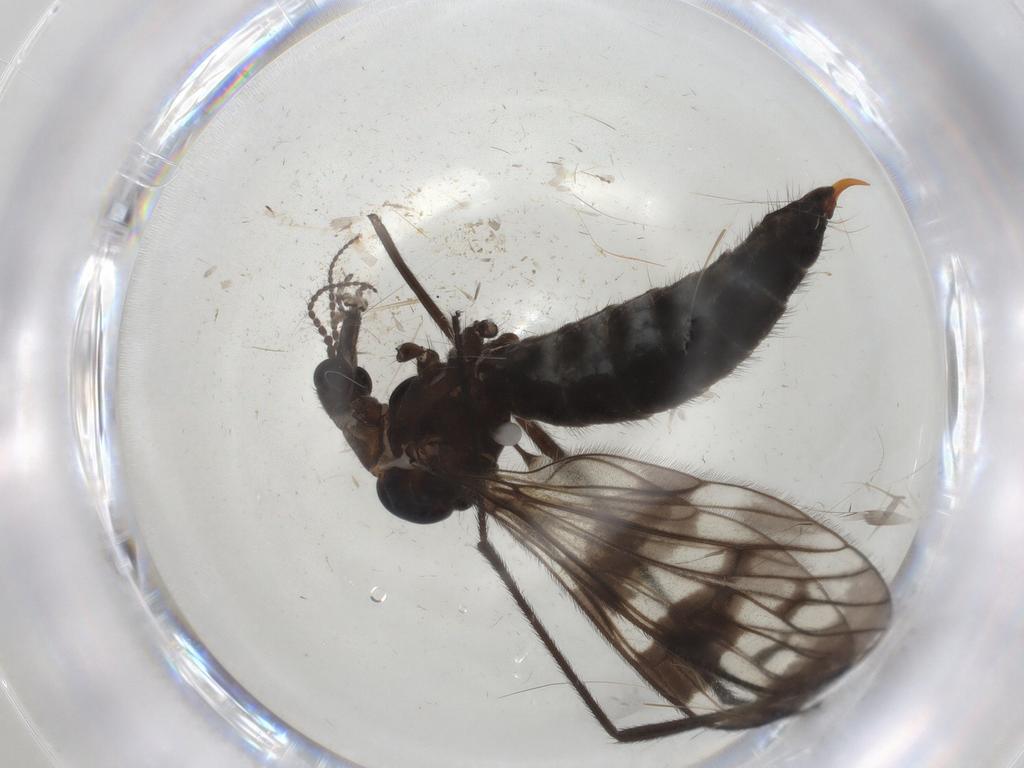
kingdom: Animalia
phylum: Arthropoda
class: Insecta
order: Diptera
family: Limoniidae
